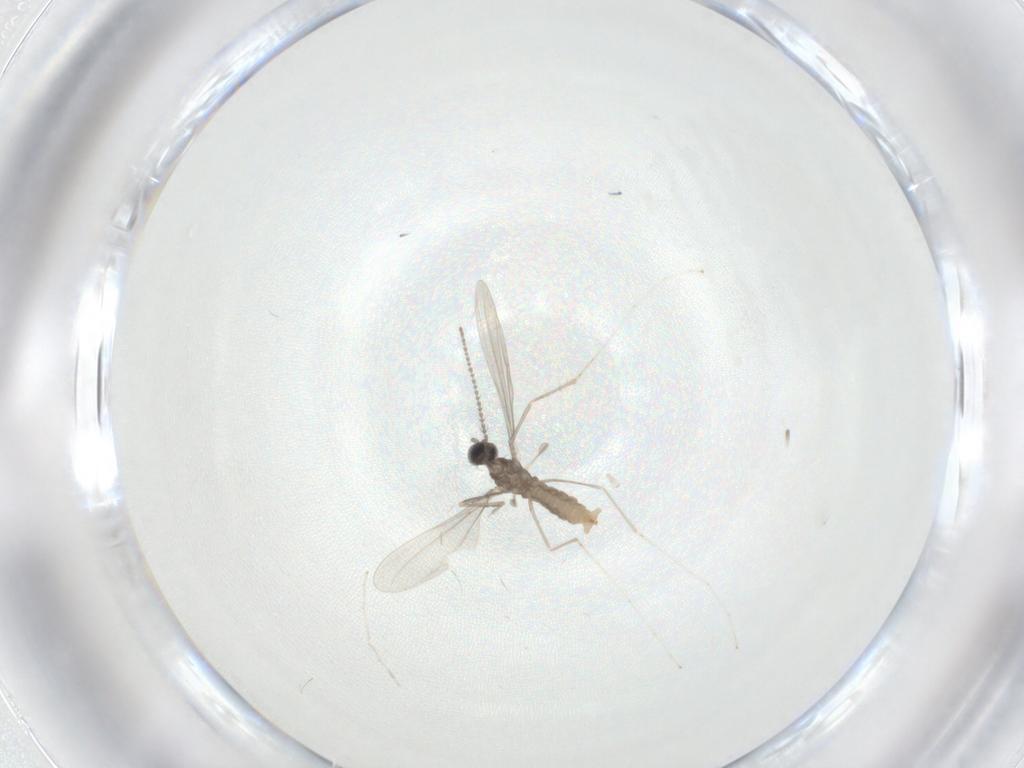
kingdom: Animalia
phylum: Arthropoda
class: Insecta
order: Diptera
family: Cecidomyiidae
